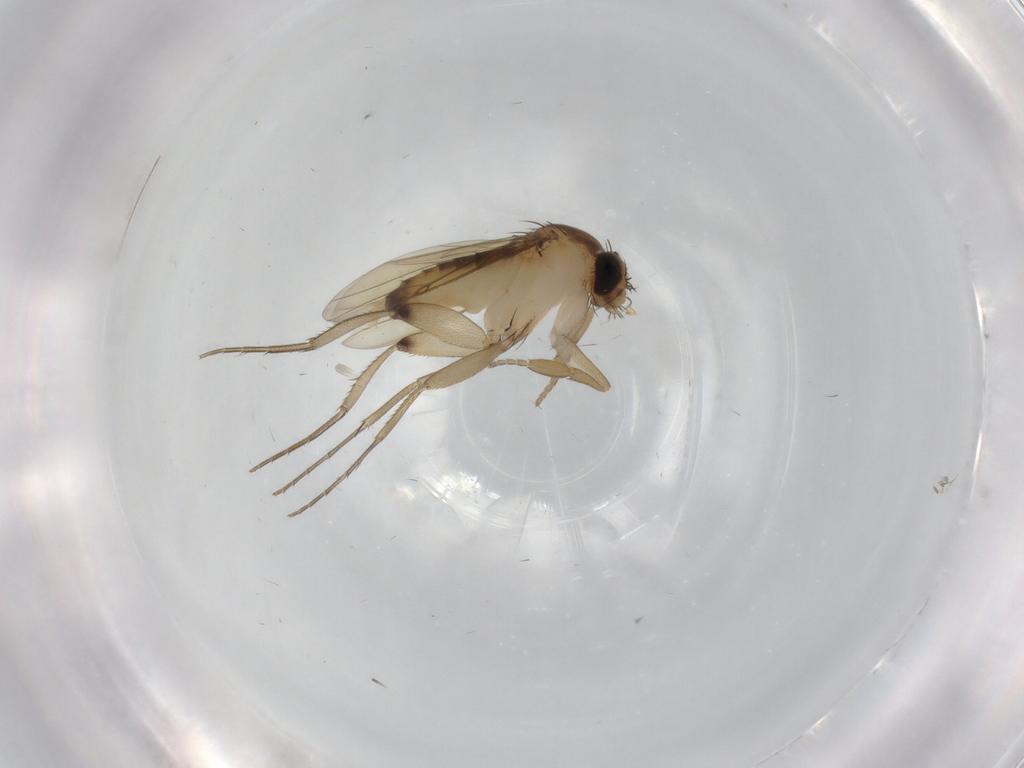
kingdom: Animalia
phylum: Arthropoda
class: Insecta
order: Diptera
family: Phoridae
